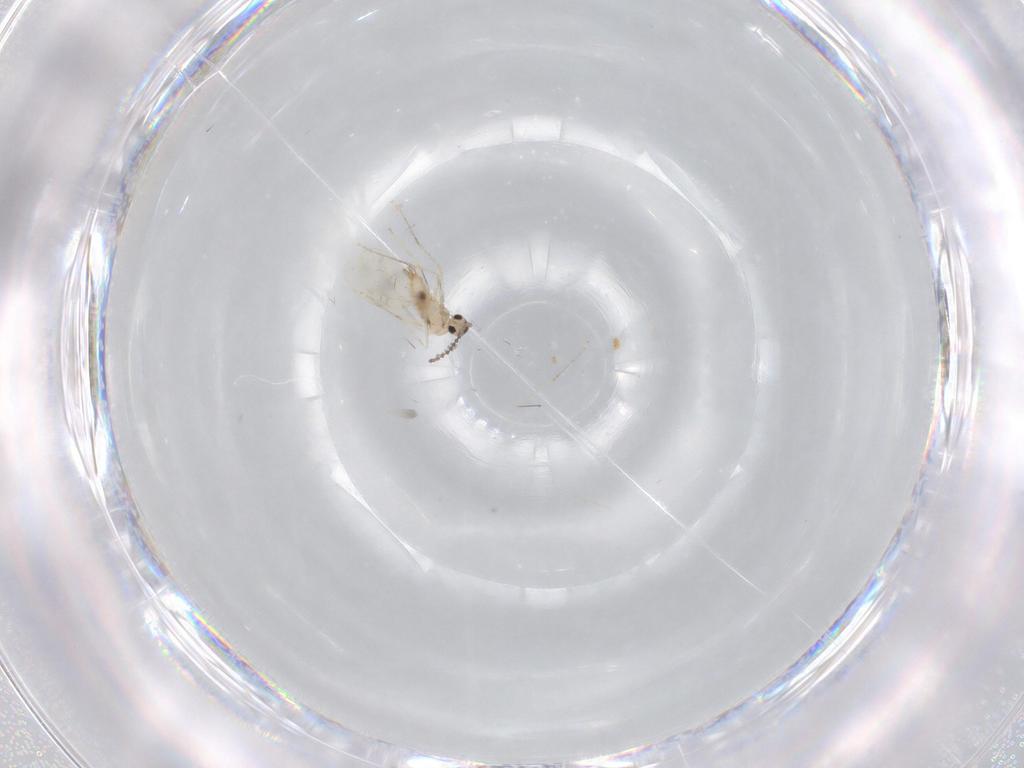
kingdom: Animalia
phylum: Arthropoda
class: Insecta
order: Diptera
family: Cecidomyiidae
